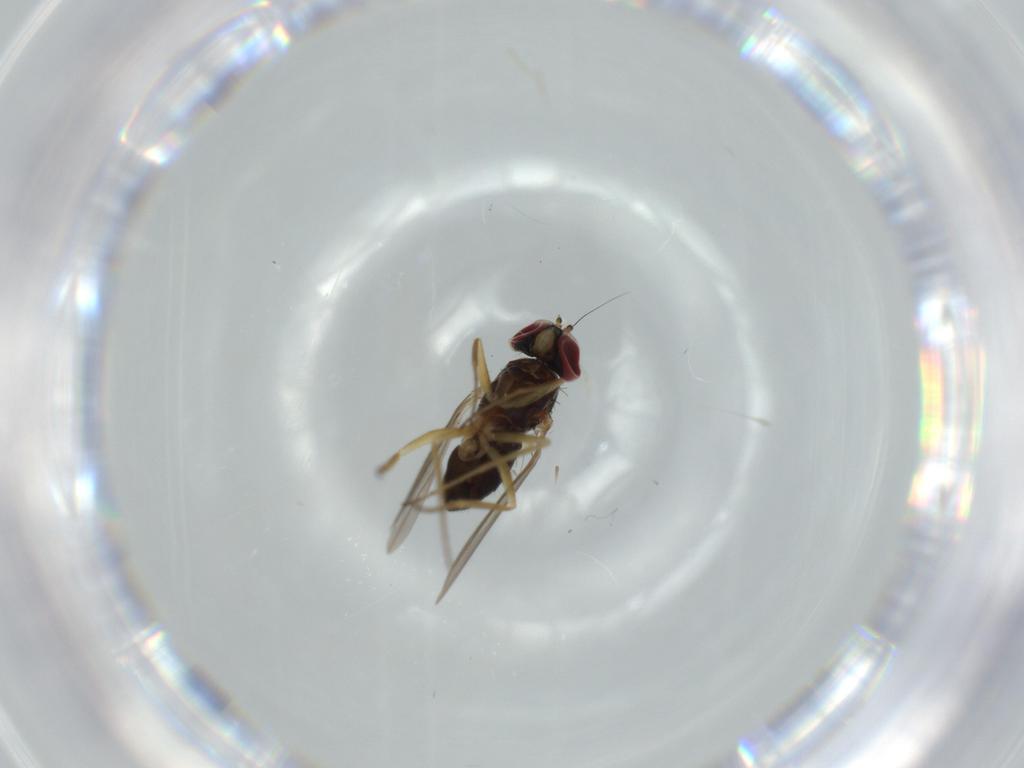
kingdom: Animalia
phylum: Arthropoda
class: Insecta
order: Diptera
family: Dolichopodidae
